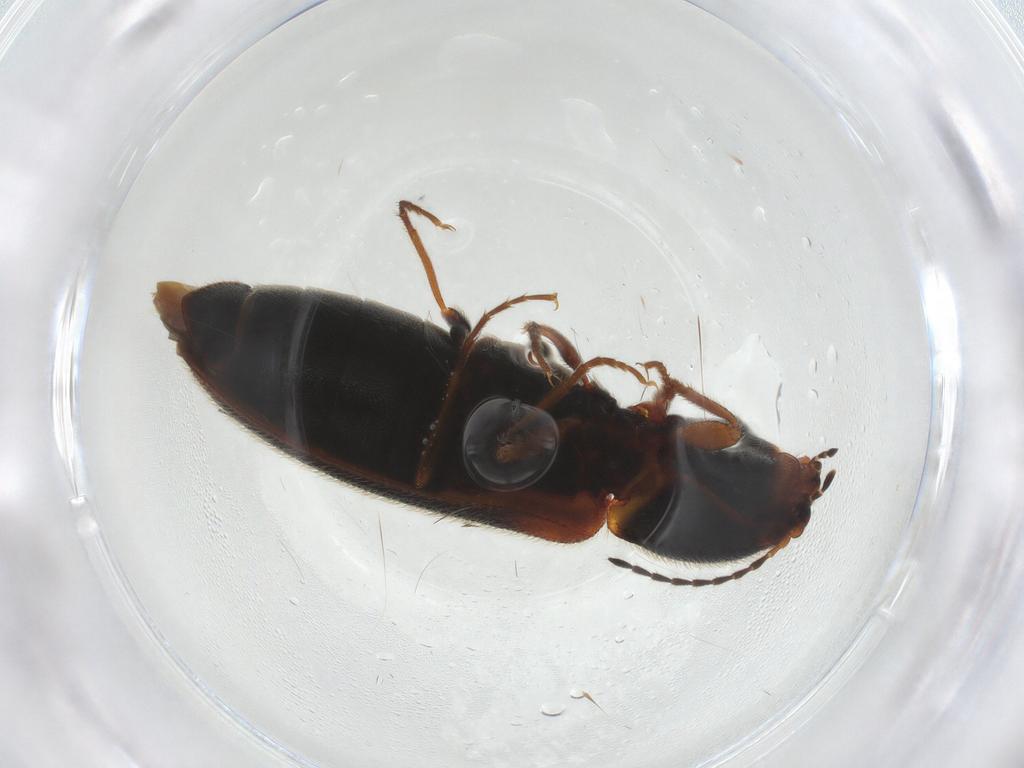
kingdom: Animalia
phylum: Arthropoda
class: Insecta
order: Coleoptera
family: Elateridae
